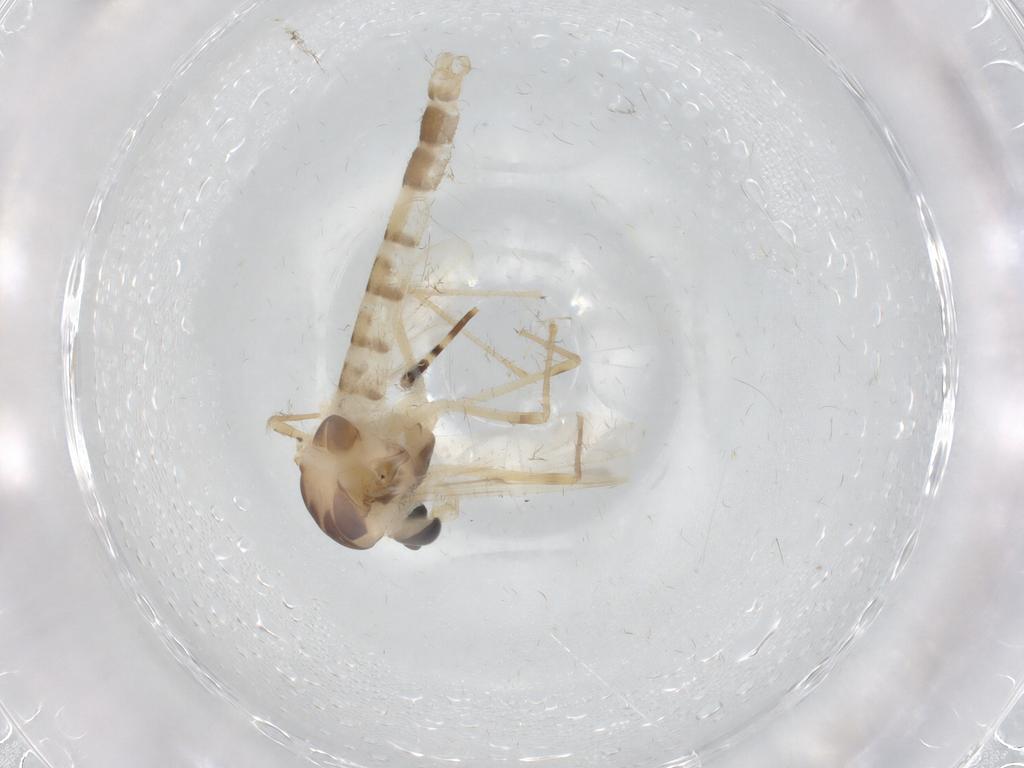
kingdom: Animalia
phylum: Arthropoda
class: Insecta
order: Diptera
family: Chironomidae
